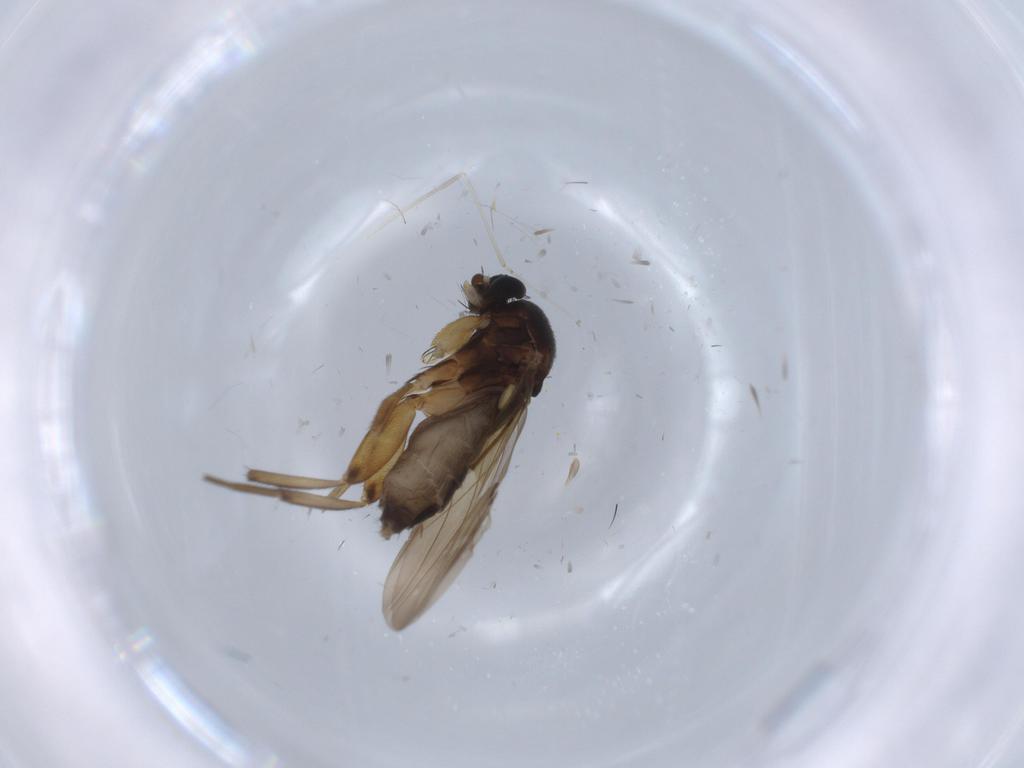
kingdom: Animalia
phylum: Arthropoda
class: Insecta
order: Diptera
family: Phoridae
